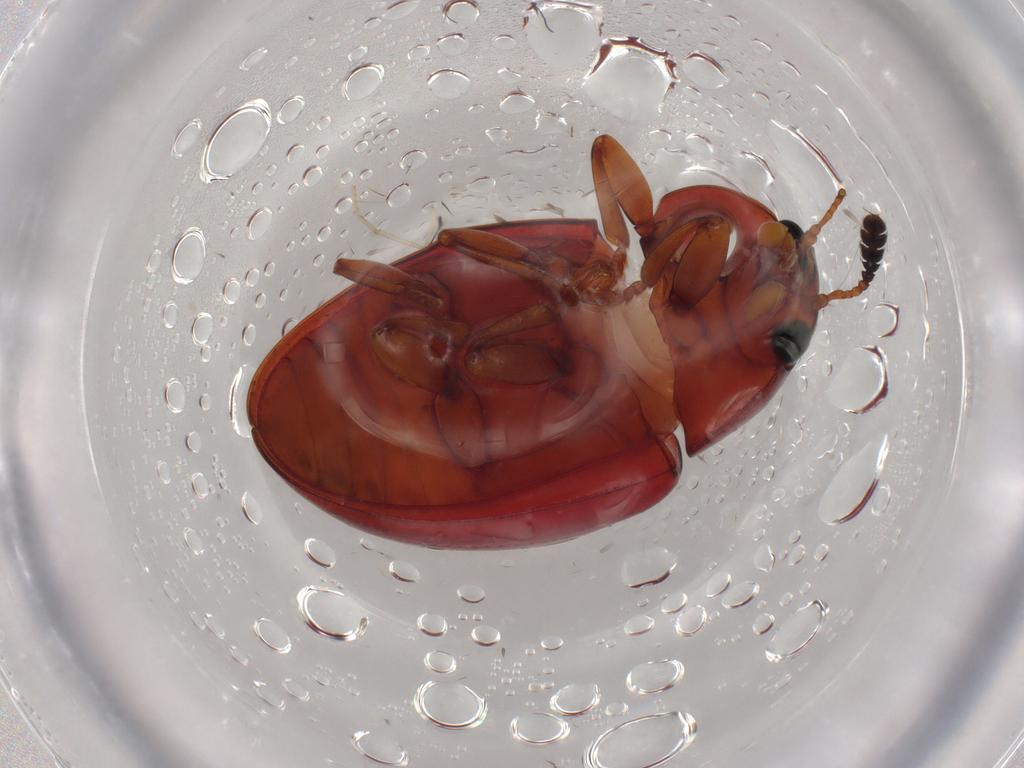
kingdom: Animalia
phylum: Arthropoda
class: Insecta
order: Coleoptera
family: Erotylidae
